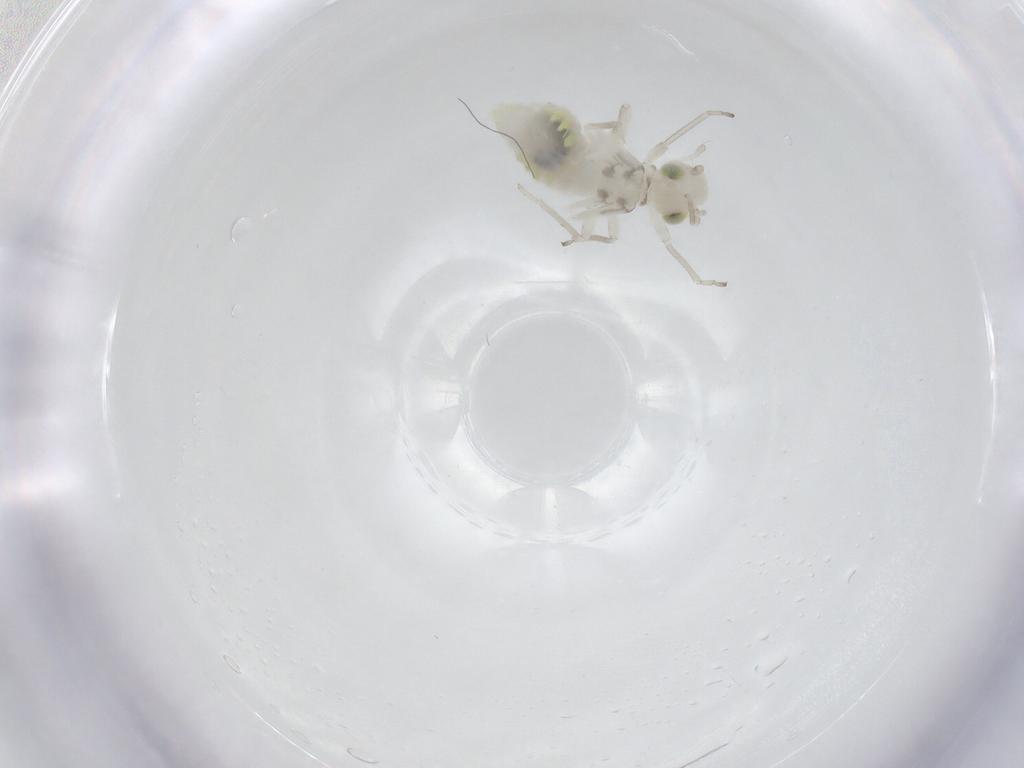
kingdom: Animalia
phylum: Arthropoda
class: Insecta
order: Psocodea
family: Caeciliusidae
